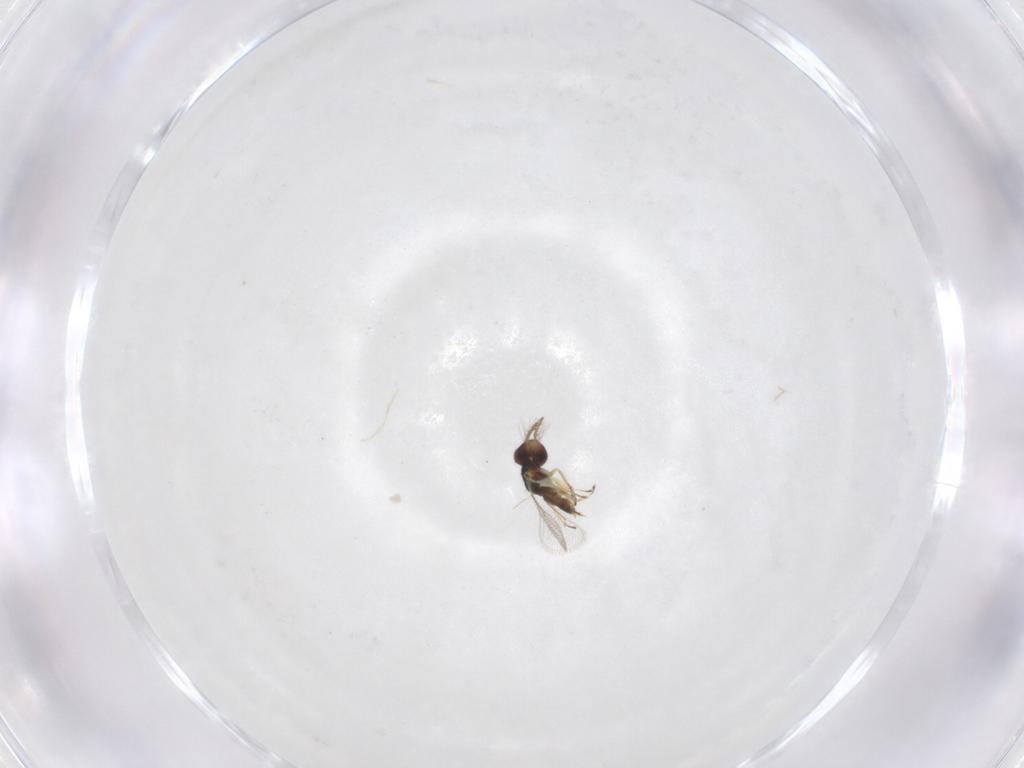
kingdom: Animalia
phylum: Arthropoda
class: Insecta
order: Hymenoptera
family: Eulophidae
